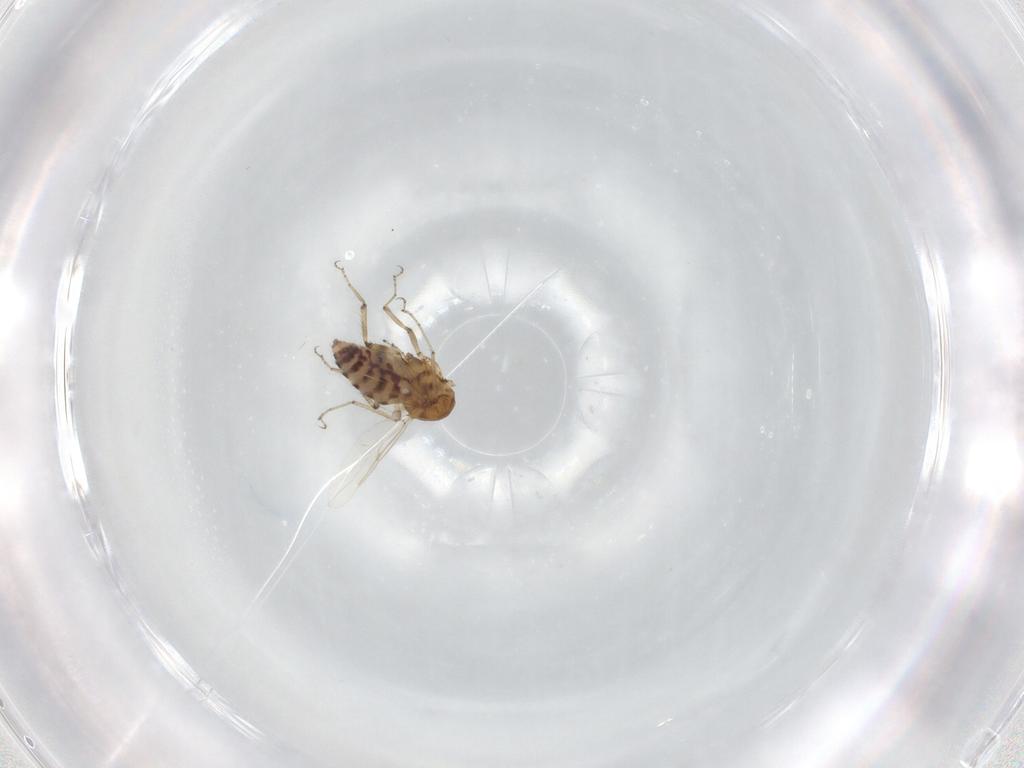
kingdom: Animalia
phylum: Arthropoda
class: Insecta
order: Diptera
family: Ceratopogonidae
